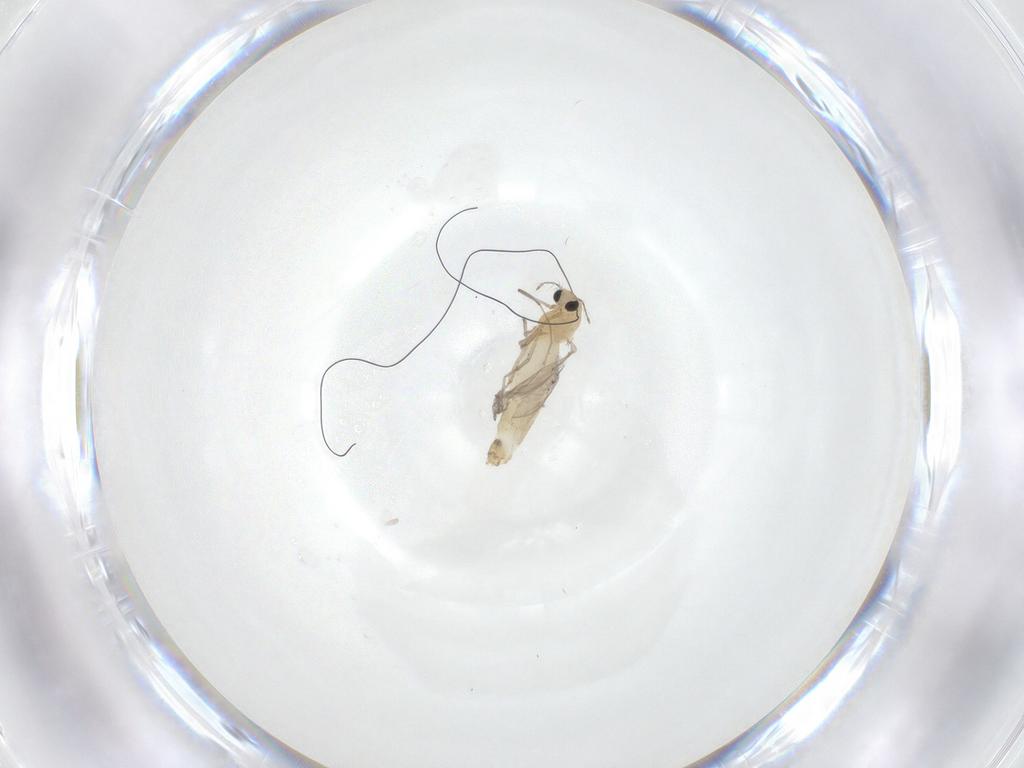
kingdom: Animalia
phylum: Arthropoda
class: Insecta
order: Diptera
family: Chironomidae
